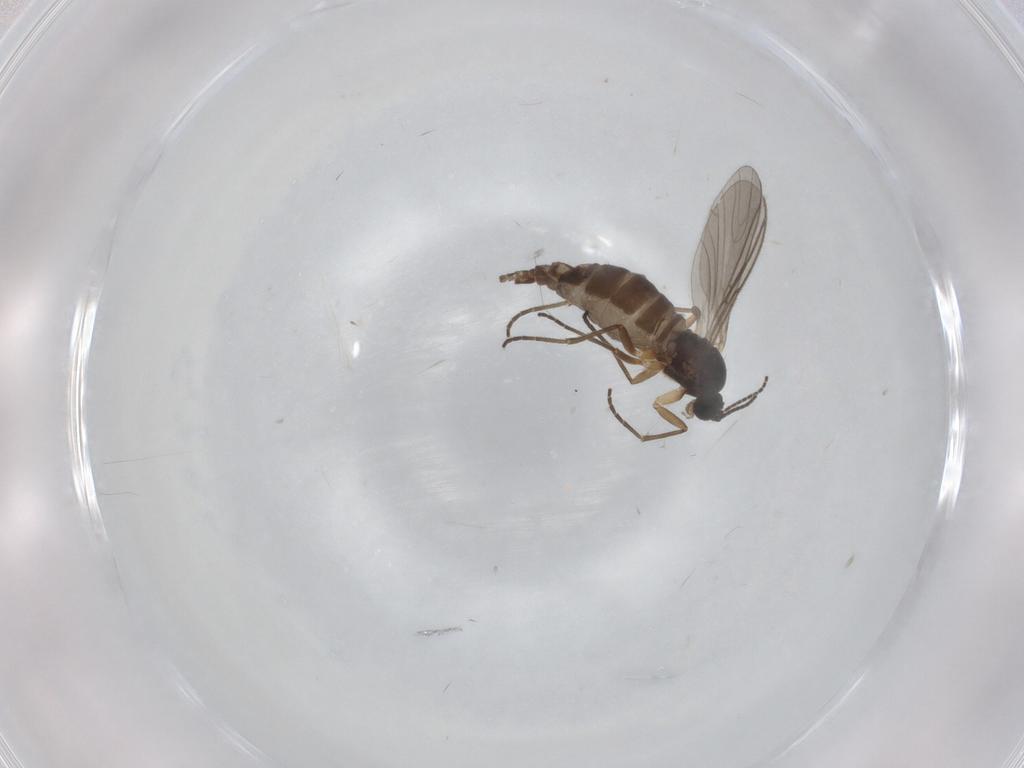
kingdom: Animalia
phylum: Arthropoda
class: Insecta
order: Diptera
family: Sciaridae
